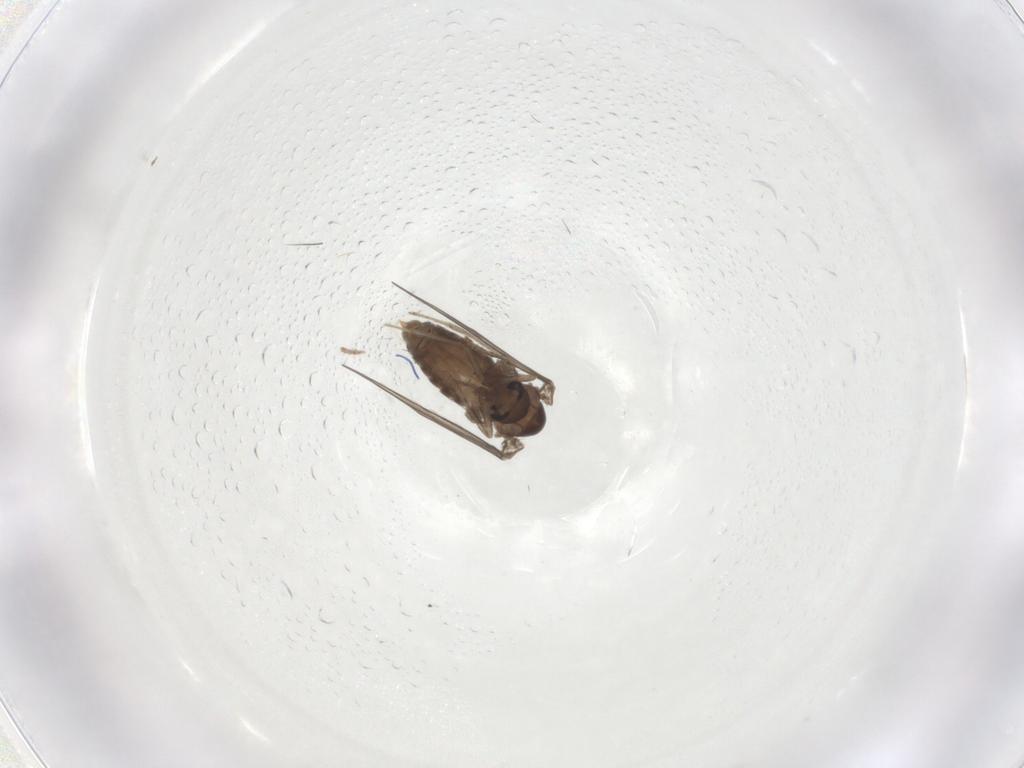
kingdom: Animalia
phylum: Arthropoda
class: Insecta
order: Diptera
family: Psychodidae
